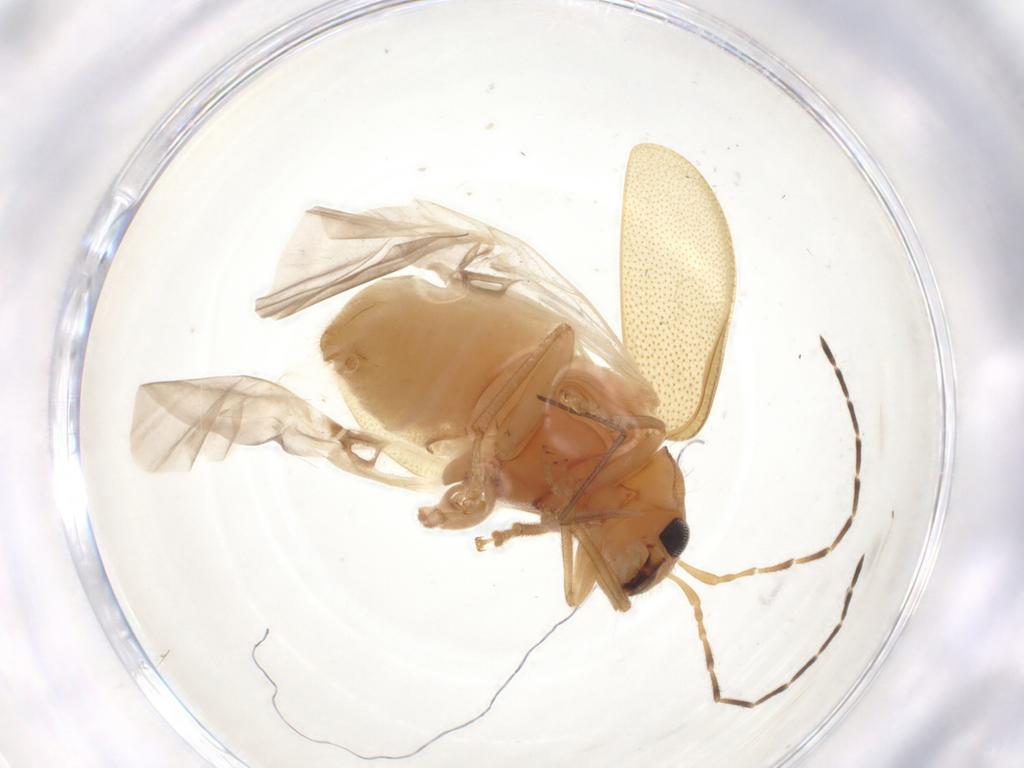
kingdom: Animalia
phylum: Arthropoda
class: Insecta
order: Coleoptera
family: Chrysomelidae
